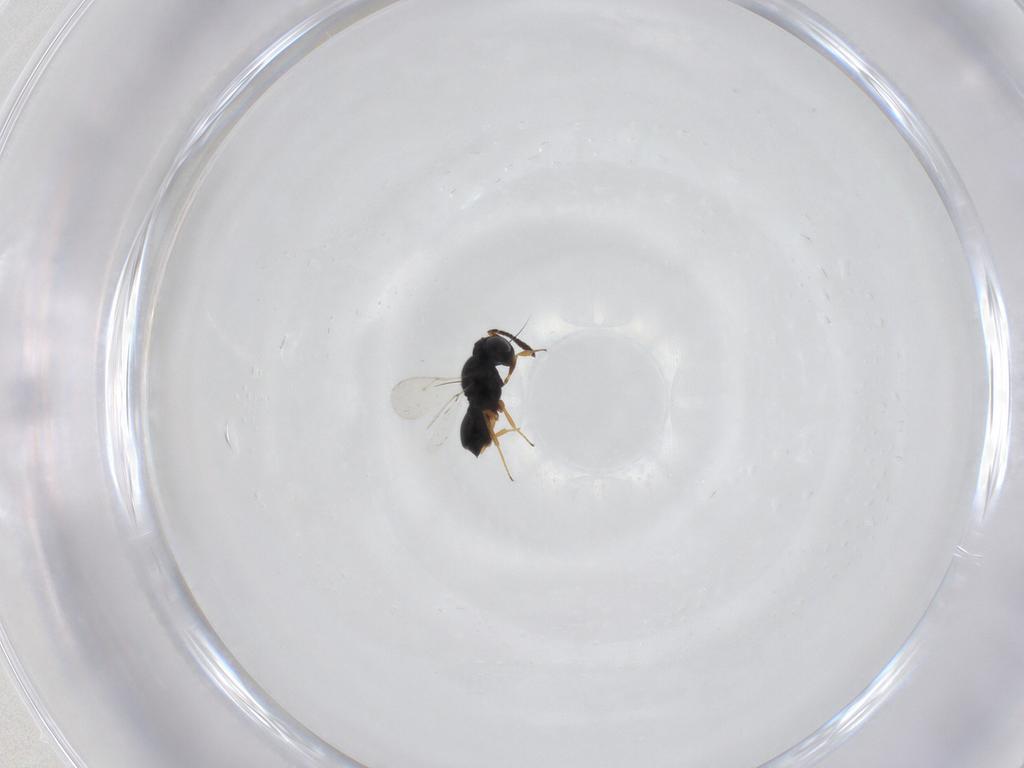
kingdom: Animalia
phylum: Arthropoda
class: Insecta
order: Hymenoptera
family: Scelionidae
